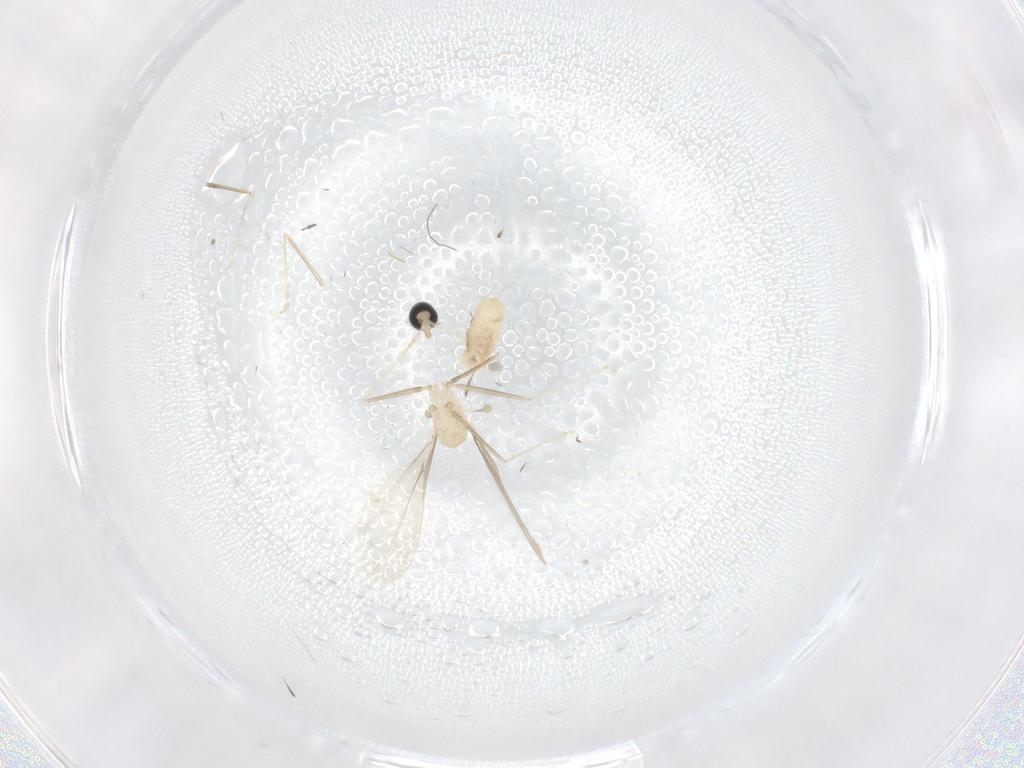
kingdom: Animalia
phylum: Arthropoda
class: Insecta
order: Diptera
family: Cecidomyiidae
